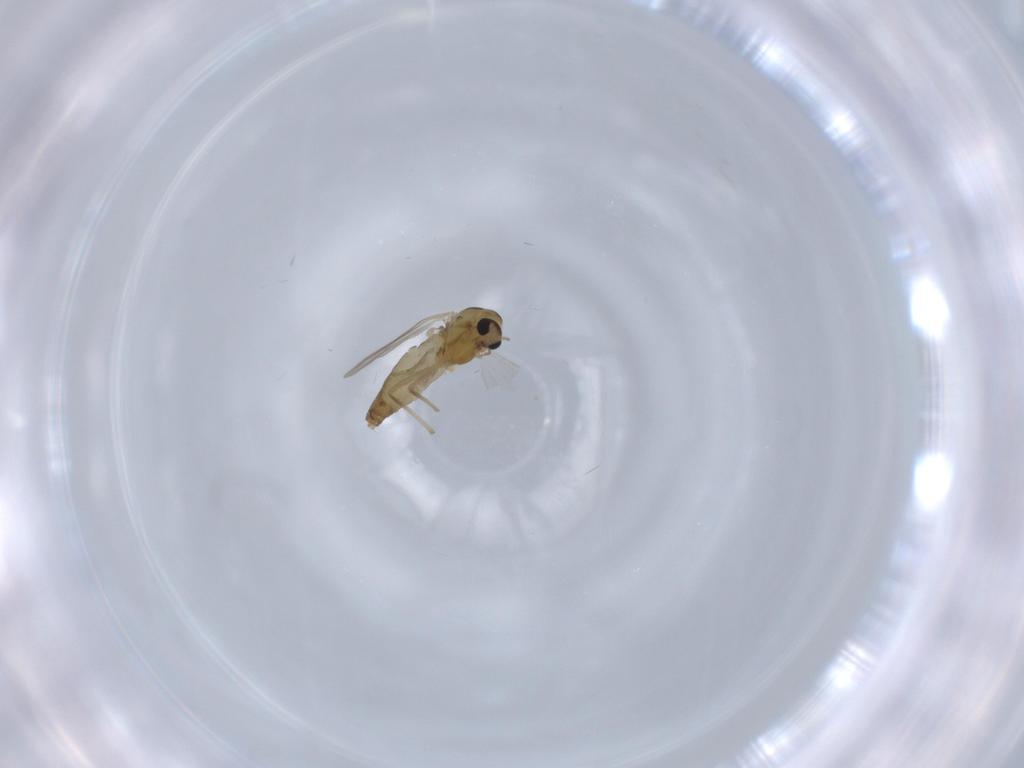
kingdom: Animalia
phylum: Arthropoda
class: Insecta
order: Diptera
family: Chironomidae
